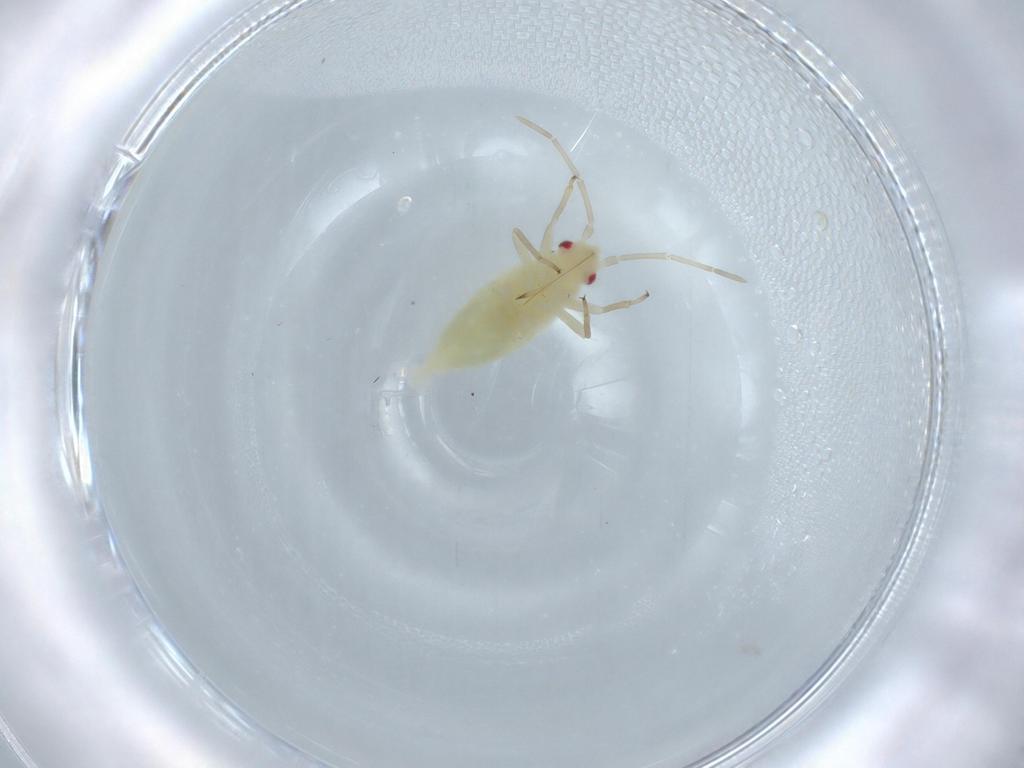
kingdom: Animalia
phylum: Arthropoda
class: Insecta
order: Hemiptera
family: Miridae
